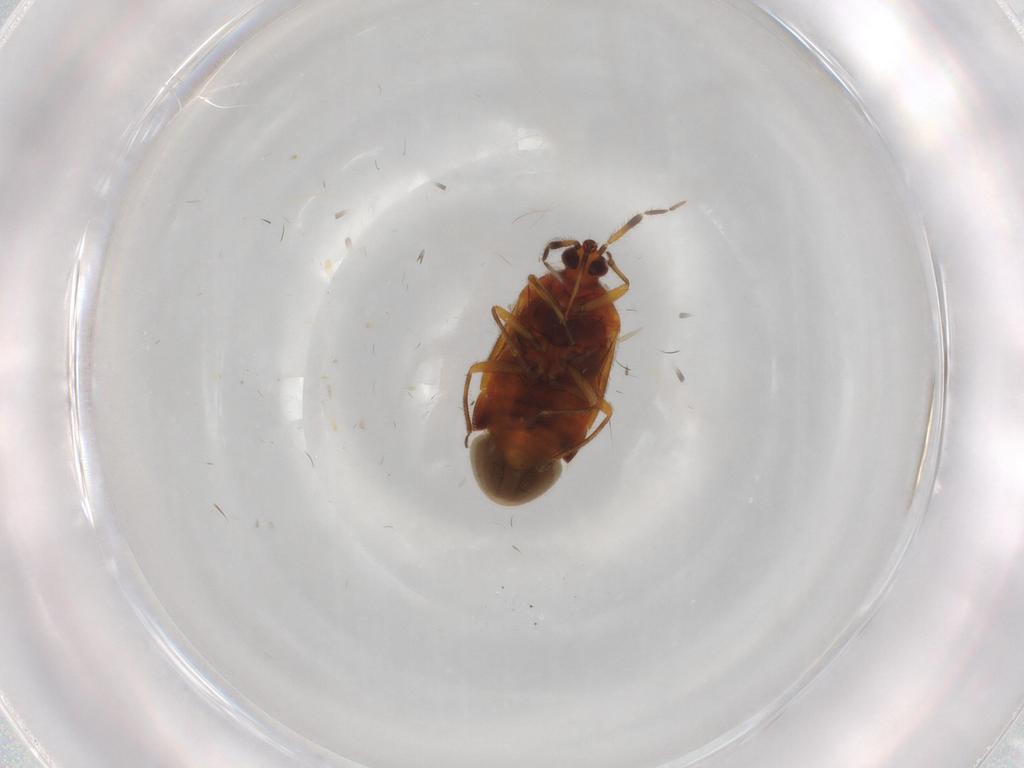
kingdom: Animalia
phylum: Arthropoda
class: Insecta
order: Hemiptera
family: Anthocoridae
